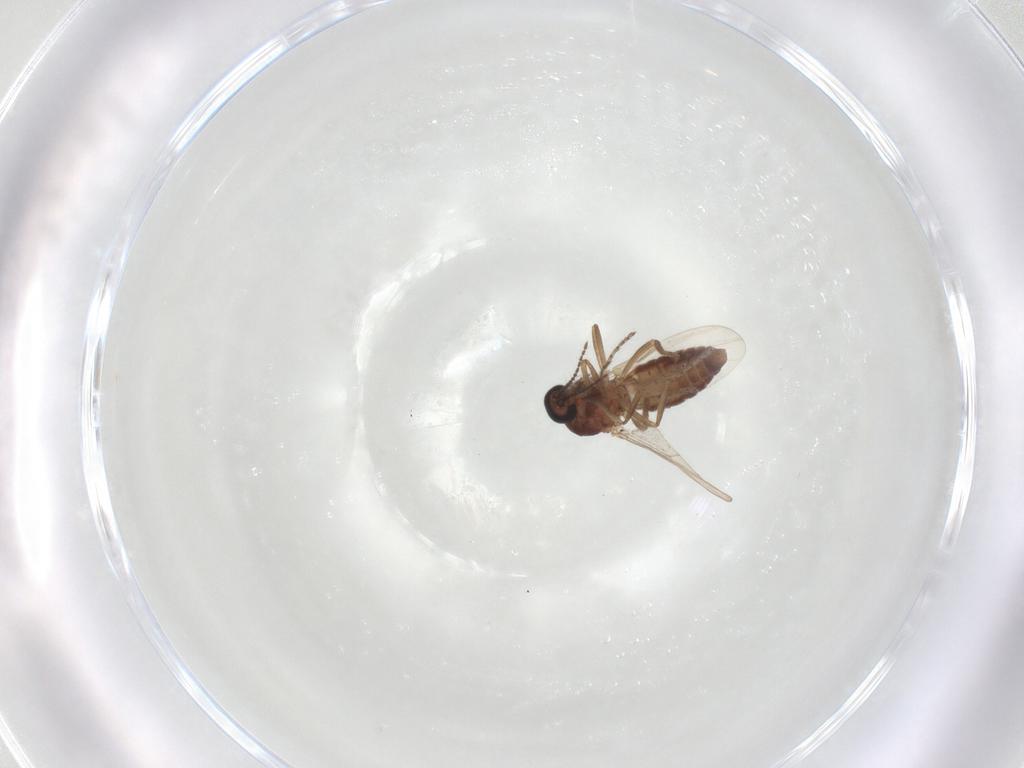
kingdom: Animalia
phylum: Arthropoda
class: Insecta
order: Diptera
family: Ceratopogonidae
